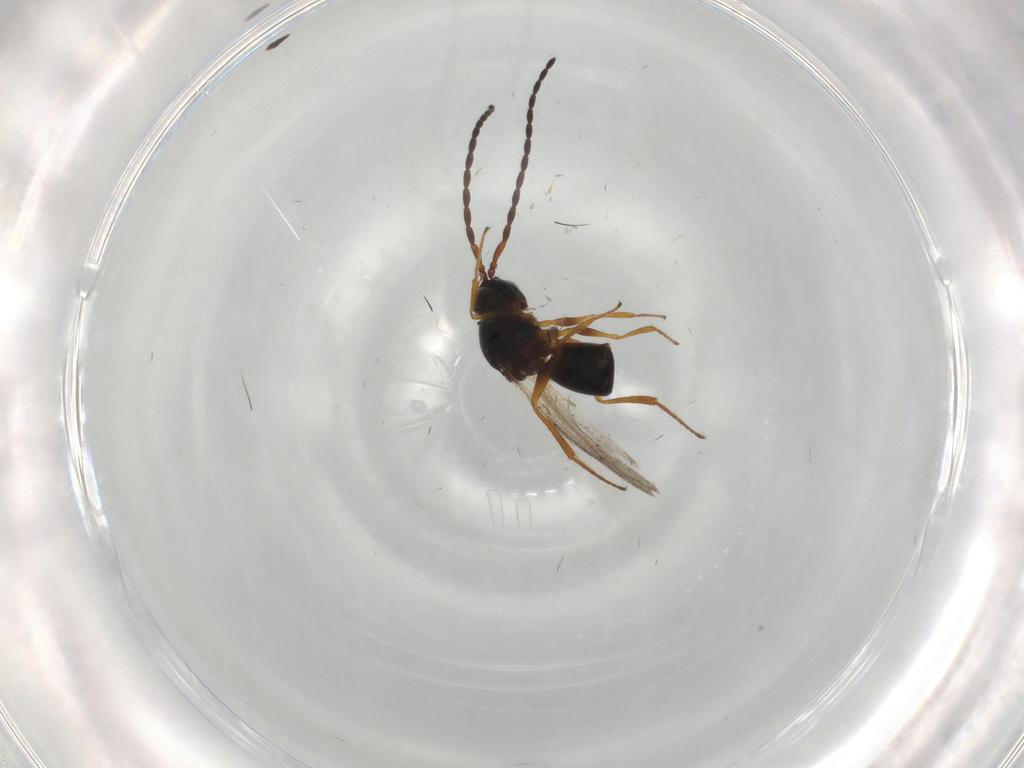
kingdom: Animalia
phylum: Arthropoda
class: Insecta
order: Hymenoptera
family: Figitidae
